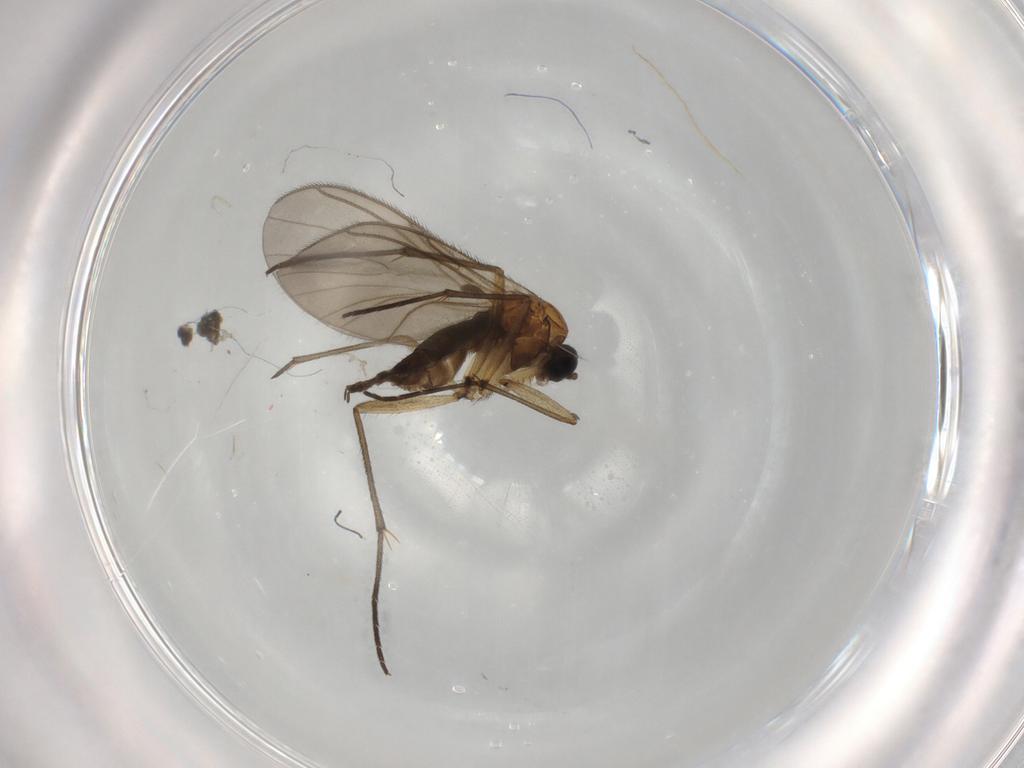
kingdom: Animalia
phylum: Arthropoda
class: Insecta
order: Diptera
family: Sciaridae
